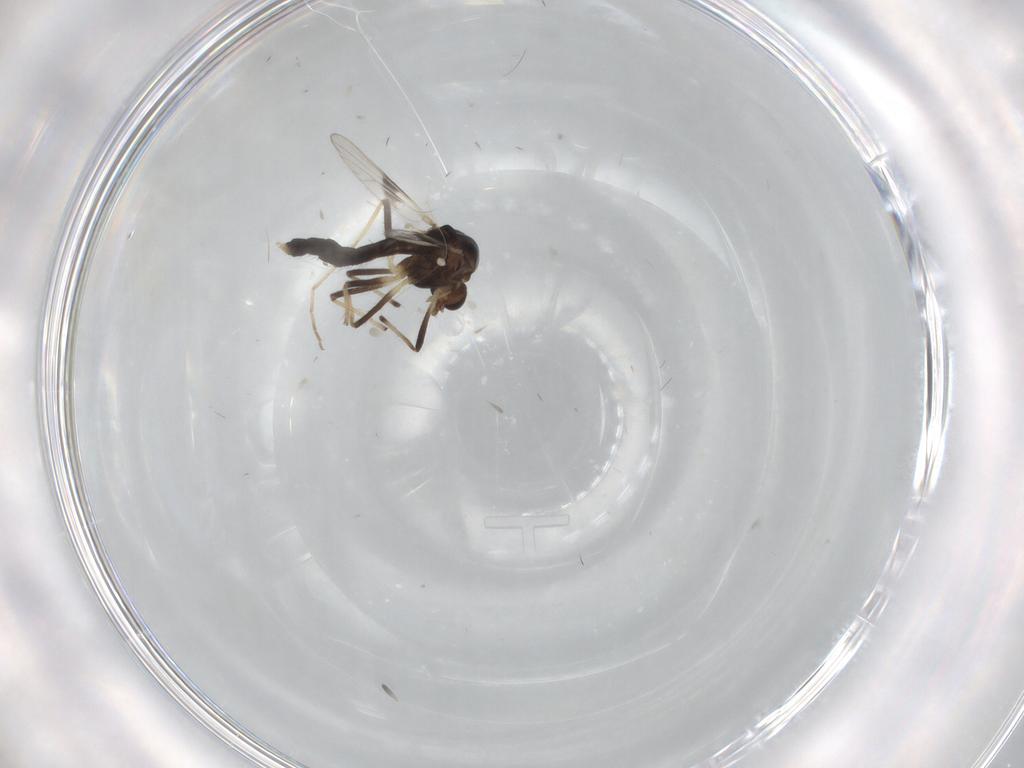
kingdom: Animalia
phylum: Arthropoda
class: Insecta
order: Diptera
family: Chironomidae
